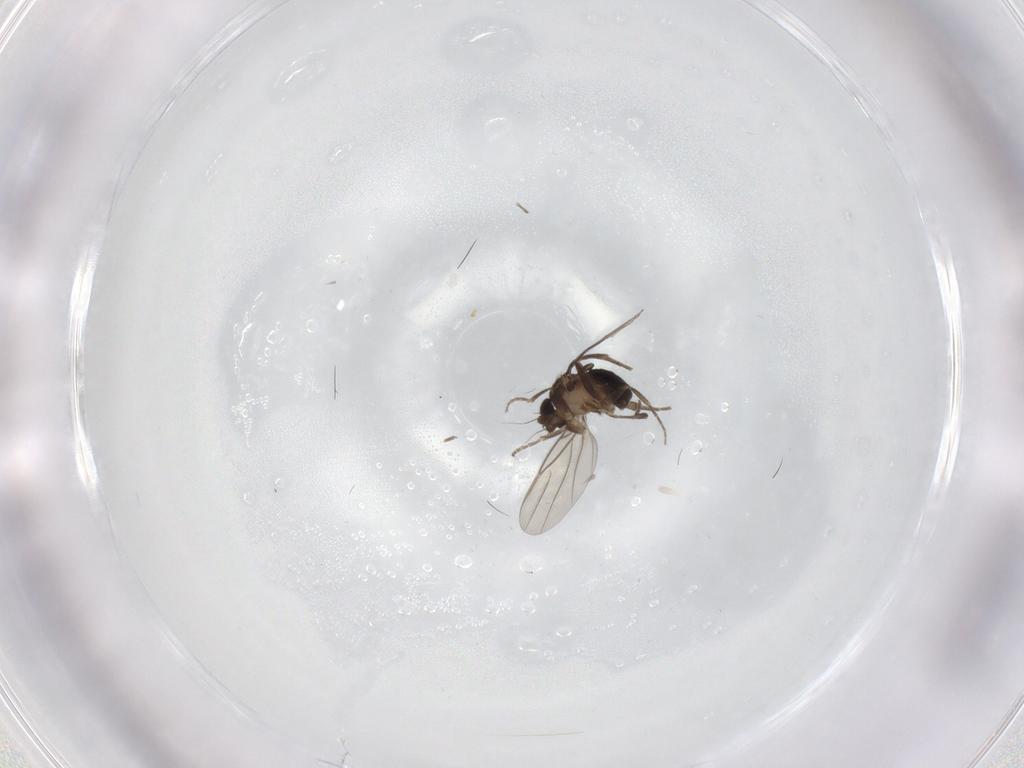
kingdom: Animalia
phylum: Arthropoda
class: Insecta
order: Diptera
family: Phoridae
